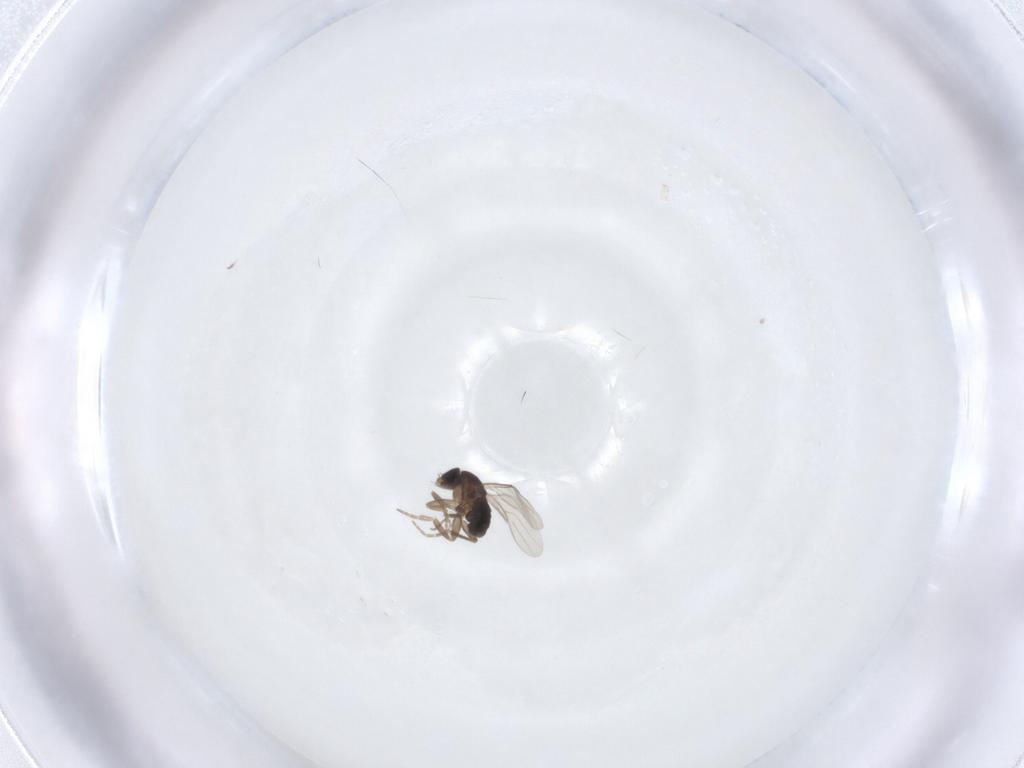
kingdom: Animalia
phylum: Arthropoda
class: Insecta
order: Diptera
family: Phoridae
